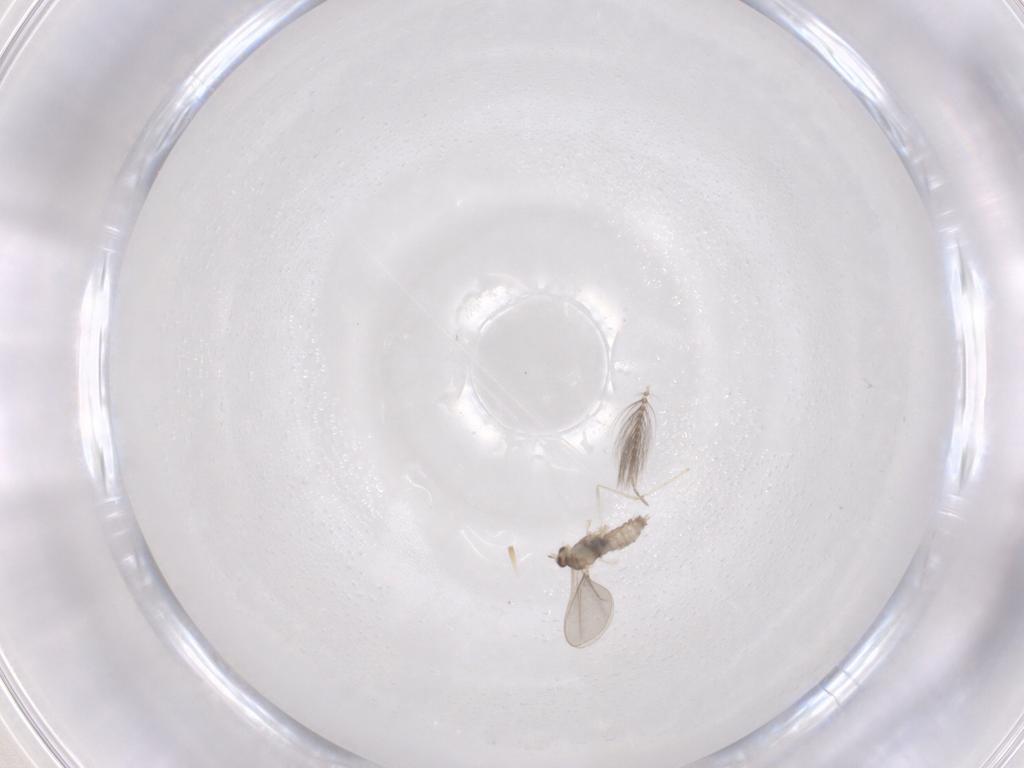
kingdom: Animalia
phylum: Arthropoda
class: Insecta
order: Diptera
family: Cecidomyiidae
